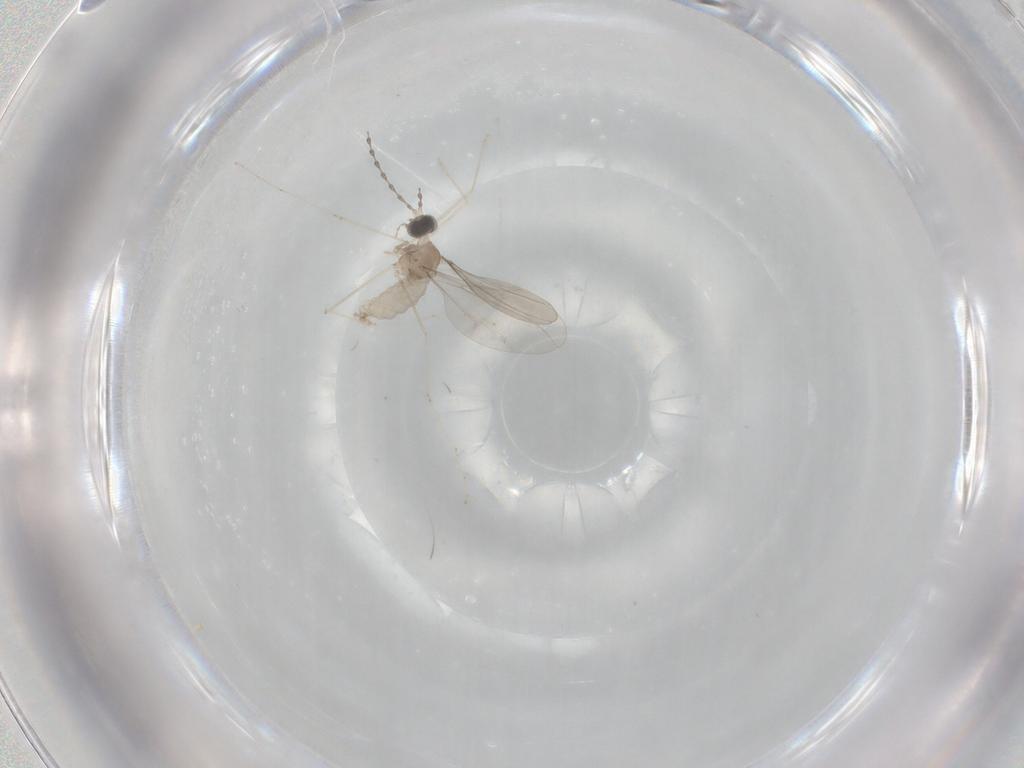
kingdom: Animalia
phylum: Arthropoda
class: Insecta
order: Diptera
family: Cecidomyiidae
